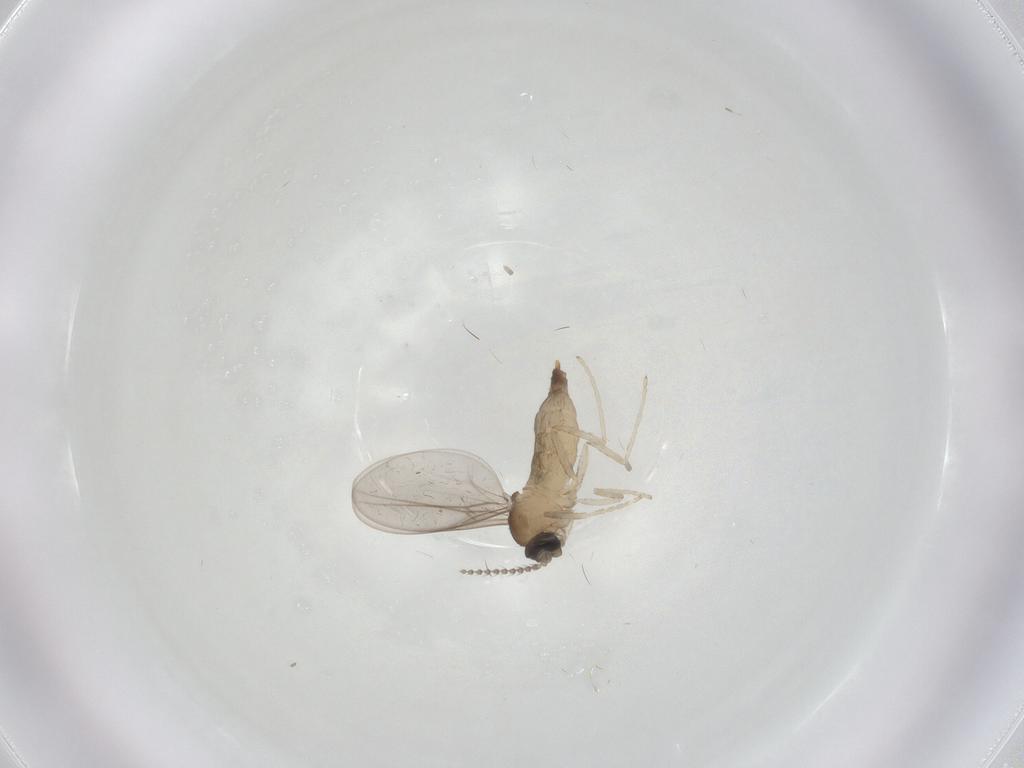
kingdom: Animalia
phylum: Arthropoda
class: Insecta
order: Diptera
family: Cecidomyiidae
